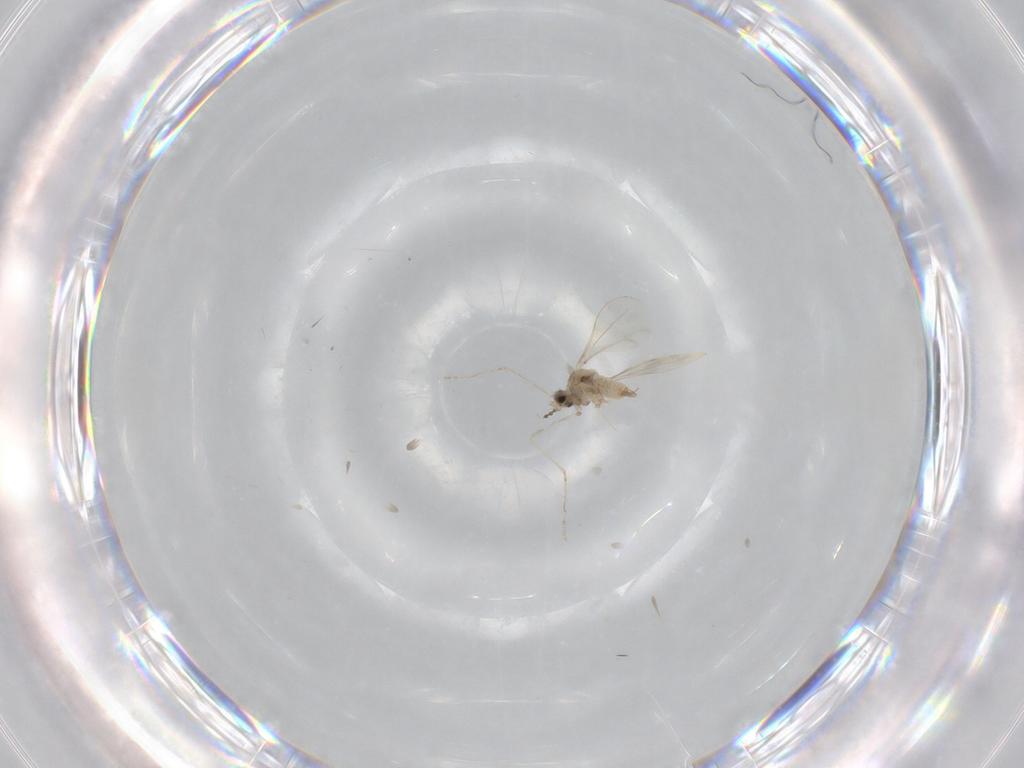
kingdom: Animalia
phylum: Arthropoda
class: Insecta
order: Diptera
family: Cecidomyiidae
